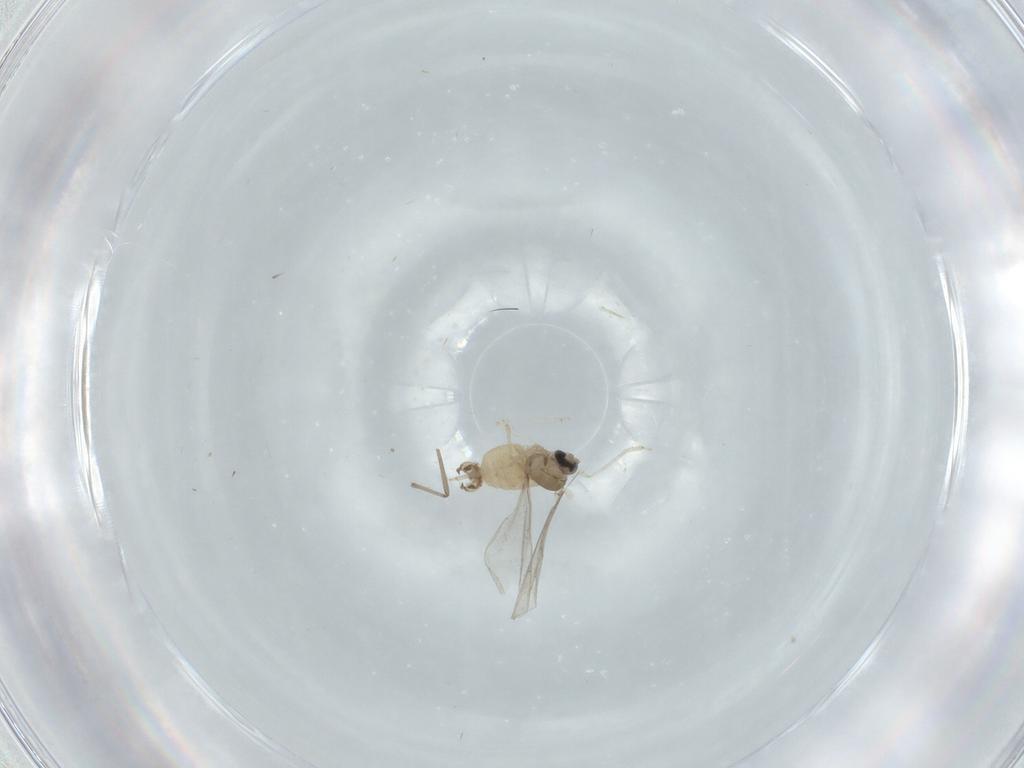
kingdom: Animalia
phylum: Arthropoda
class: Insecta
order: Diptera
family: Cecidomyiidae
